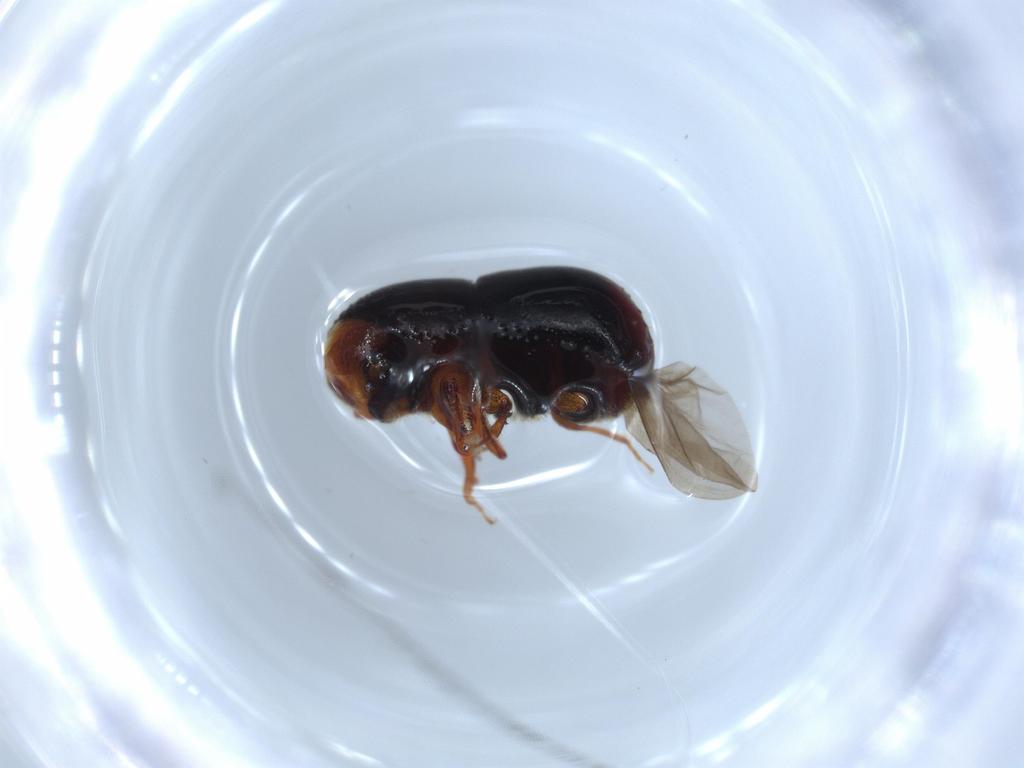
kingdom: Animalia
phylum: Arthropoda
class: Insecta
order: Coleoptera
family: Curculionidae
